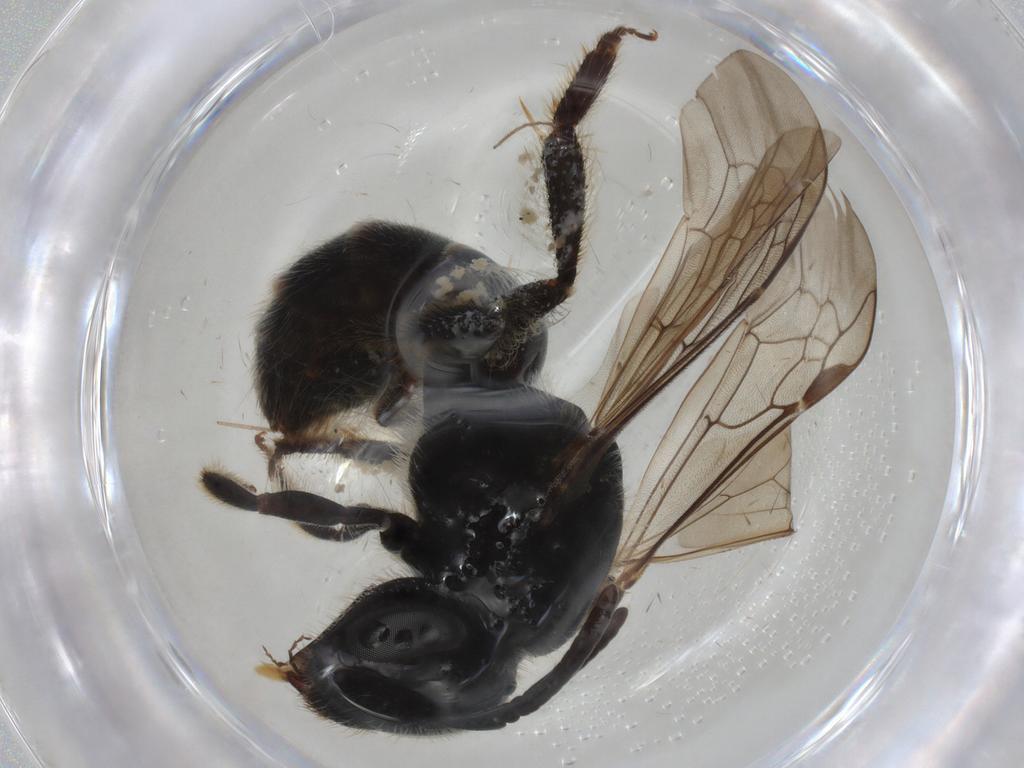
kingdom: Animalia
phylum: Arthropoda
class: Insecta
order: Hymenoptera
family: Halictidae
